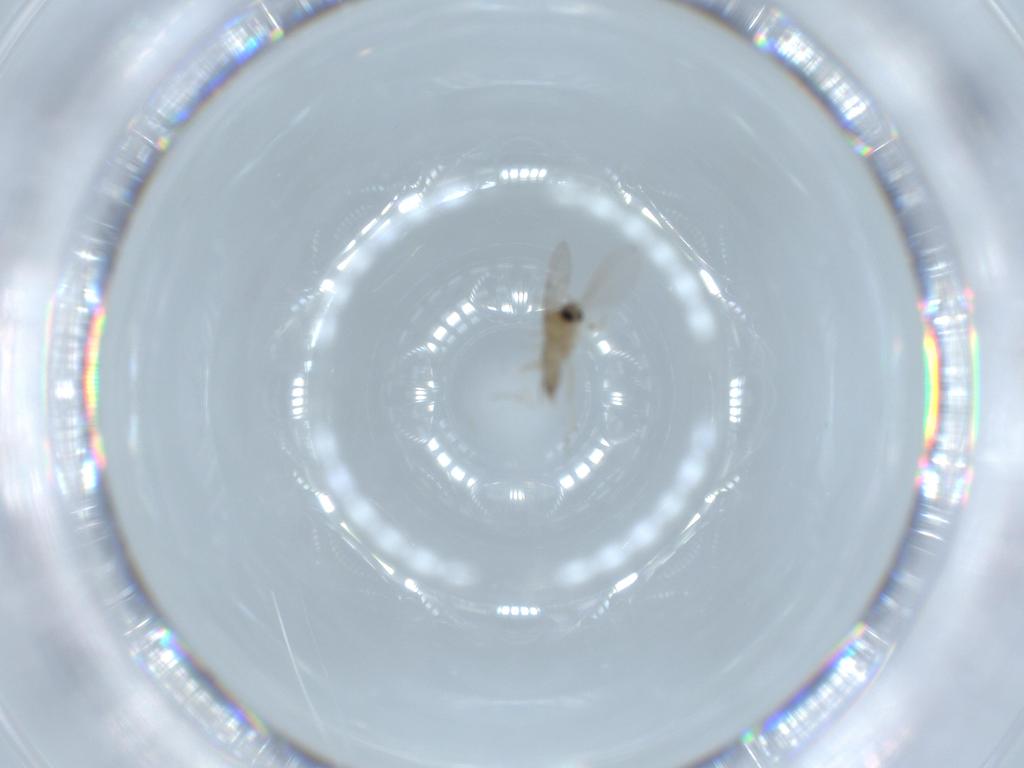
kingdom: Animalia
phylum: Arthropoda
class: Insecta
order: Diptera
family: Cecidomyiidae
